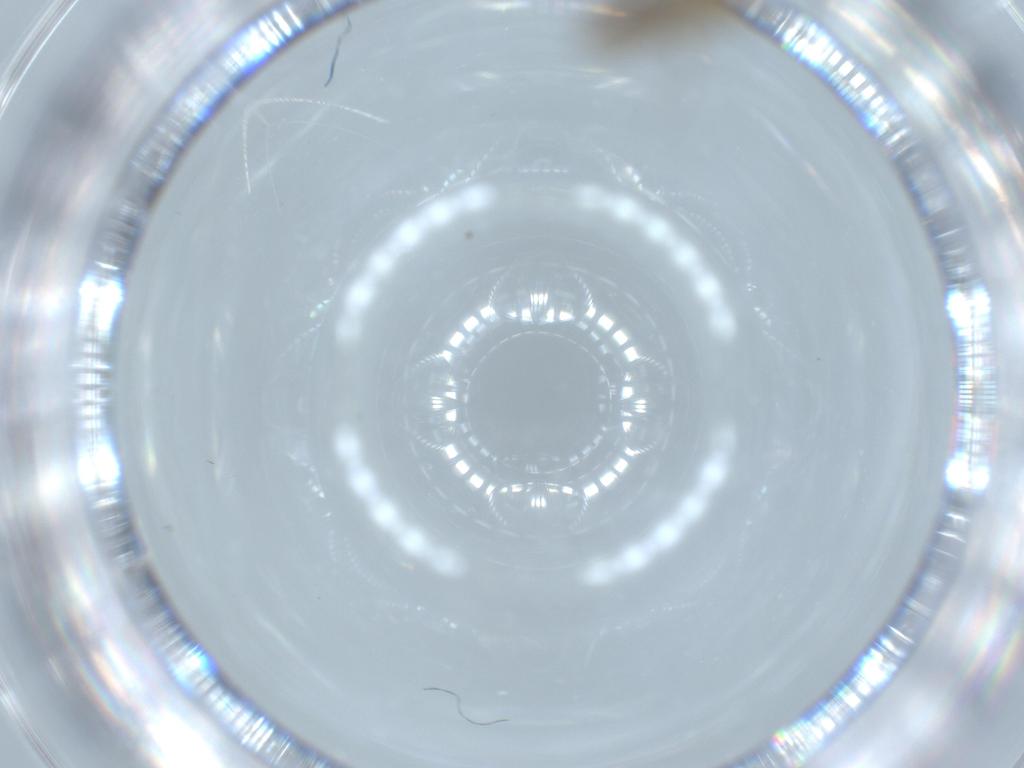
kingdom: Animalia
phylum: Arthropoda
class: Insecta
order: Diptera
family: Chironomidae
